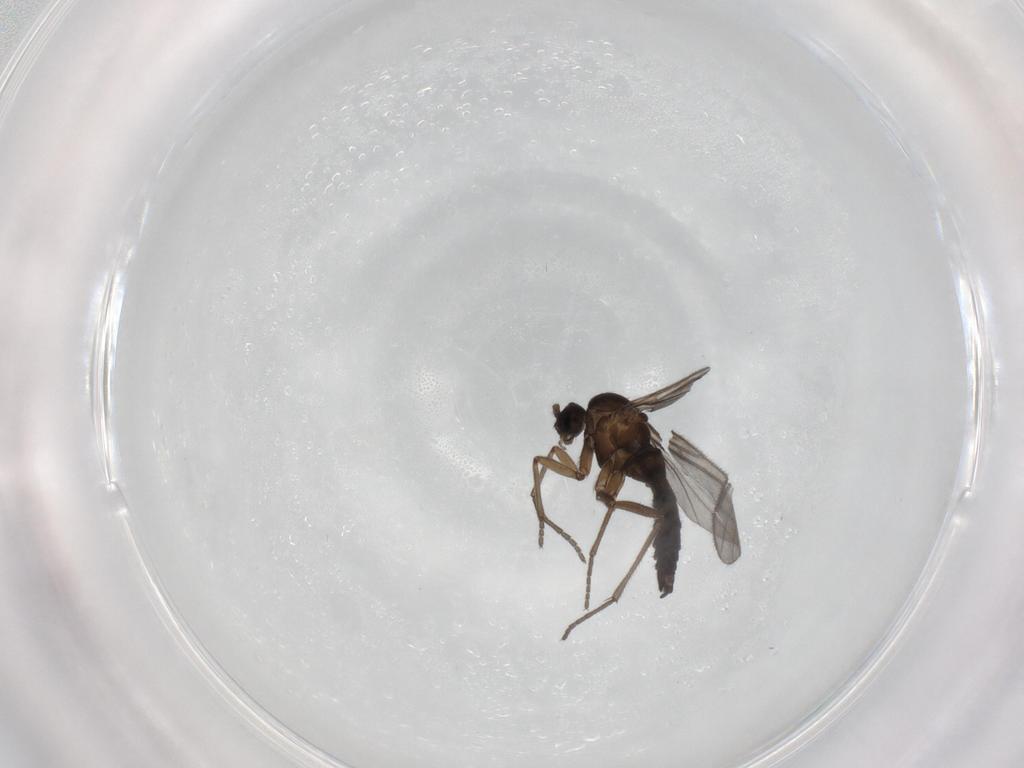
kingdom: Animalia
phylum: Arthropoda
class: Insecta
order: Diptera
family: Sciaridae
